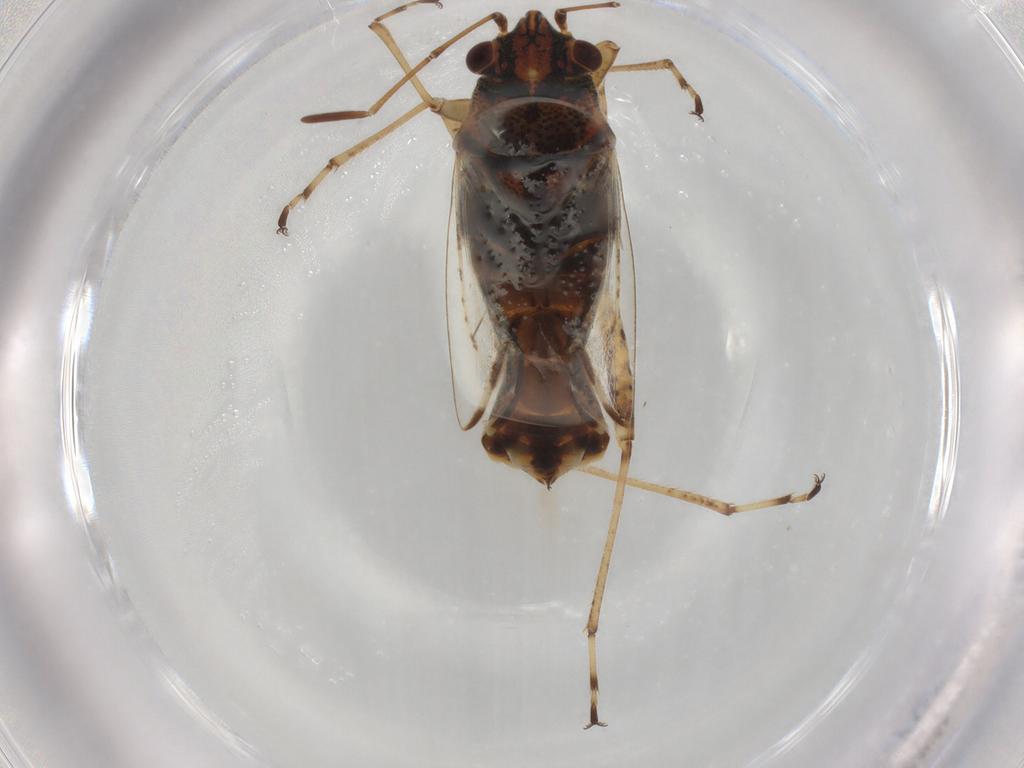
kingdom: Animalia
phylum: Arthropoda
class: Insecta
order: Hemiptera
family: Lygaeidae
